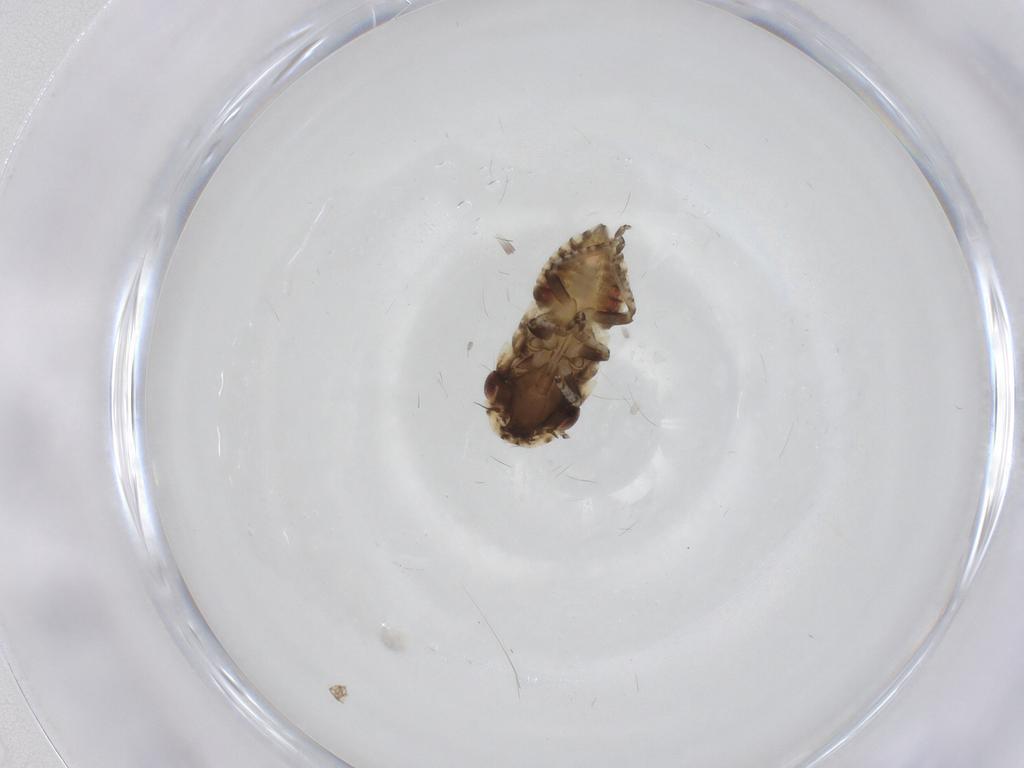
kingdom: Animalia
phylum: Arthropoda
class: Insecta
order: Hemiptera
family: Cicadellidae
